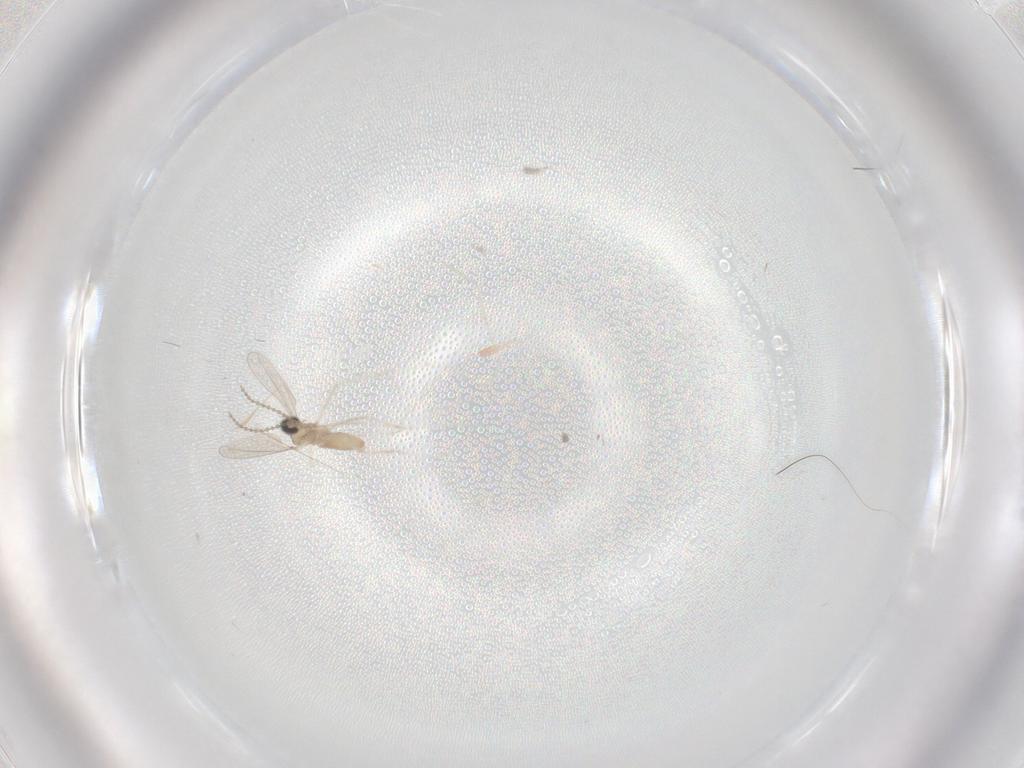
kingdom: Animalia
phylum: Arthropoda
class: Insecta
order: Diptera
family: Cecidomyiidae
